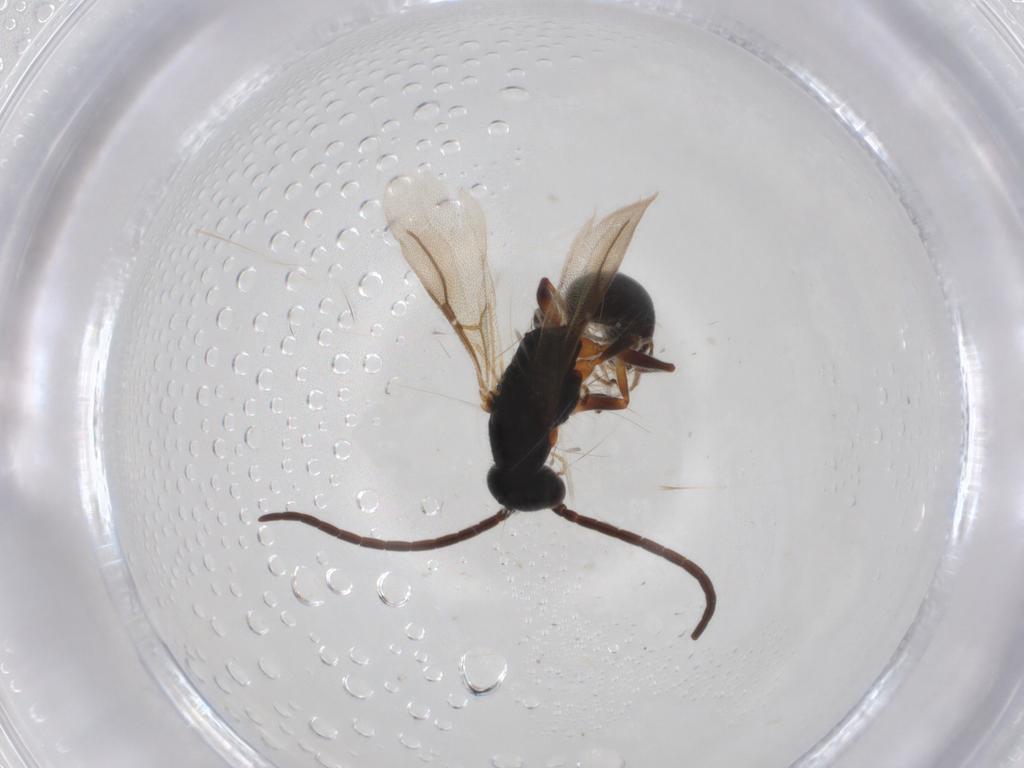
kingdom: Animalia
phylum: Arthropoda
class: Insecta
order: Hymenoptera
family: Bethylidae
